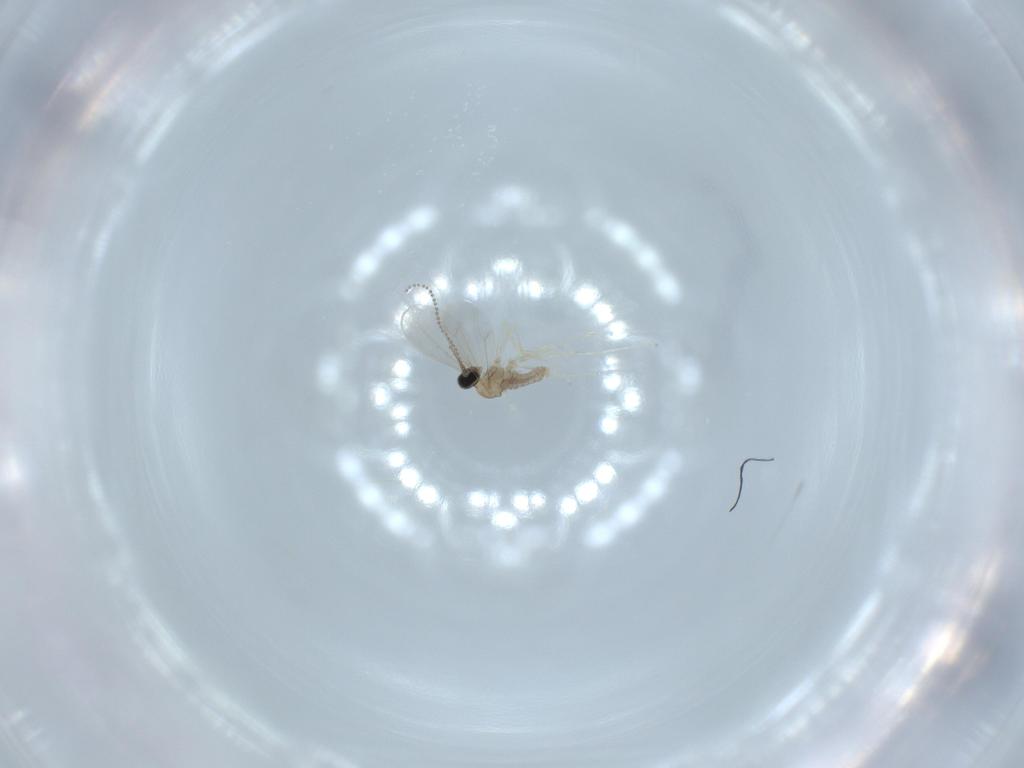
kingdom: Animalia
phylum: Arthropoda
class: Insecta
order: Diptera
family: Cecidomyiidae
